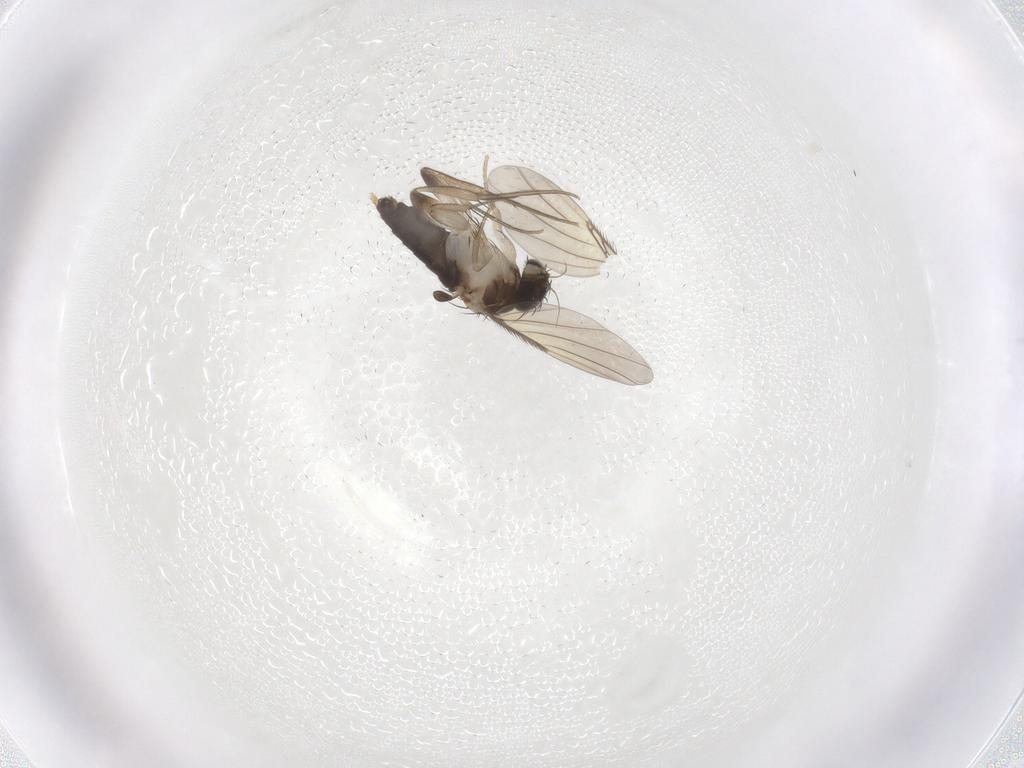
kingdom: Animalia
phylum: Arthropoda
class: Insecta
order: Diptera
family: Phoridae
